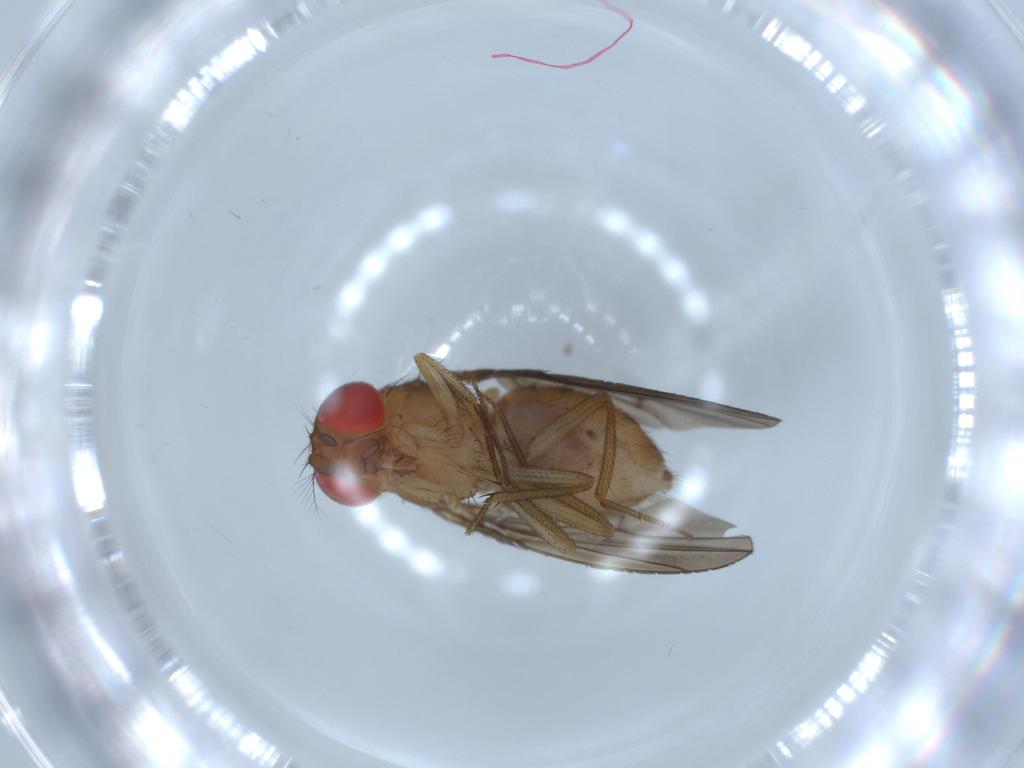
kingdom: Animalia
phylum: Arthropoda
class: Insecta
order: Diptera
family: Sciaridae
